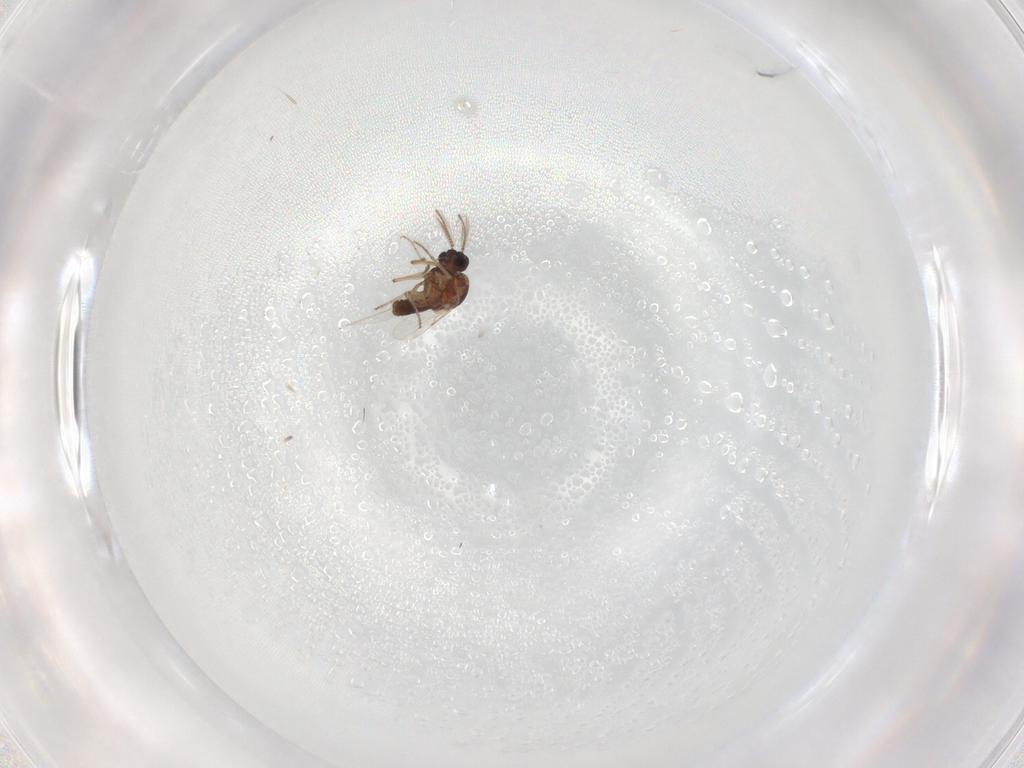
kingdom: Animalia
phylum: Arthropoda
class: Insecta
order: Diptera
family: Ceratopogonidae
